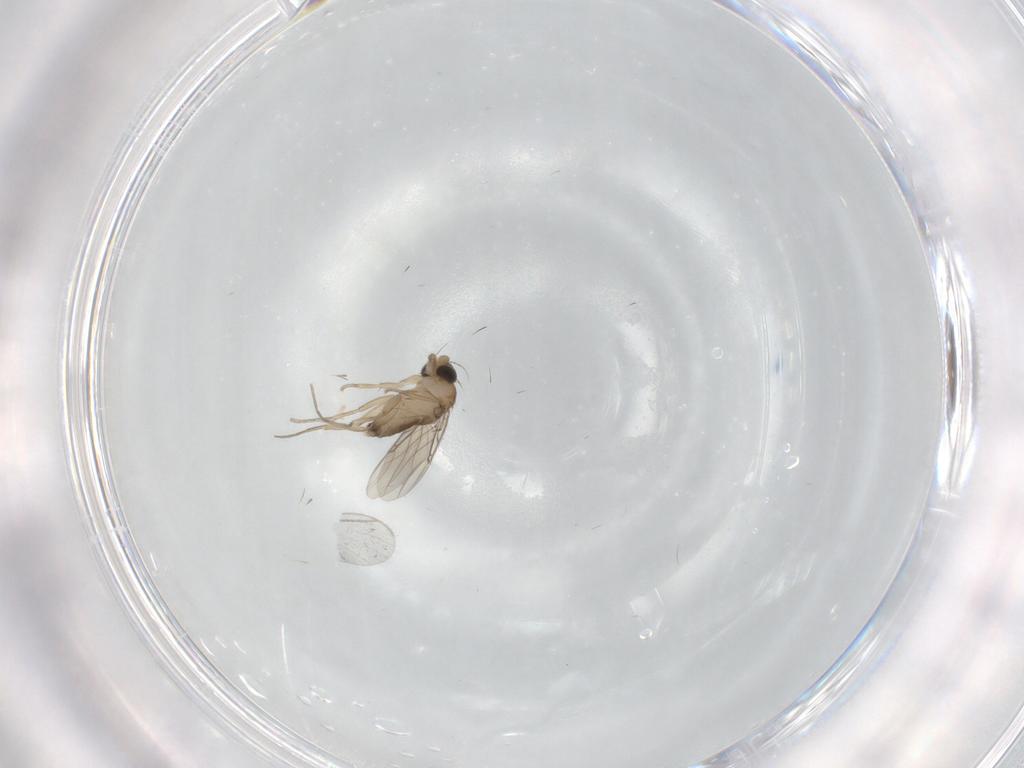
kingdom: Animalia
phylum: Arthropoda
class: Insecta
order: Diptera
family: Phoridae
